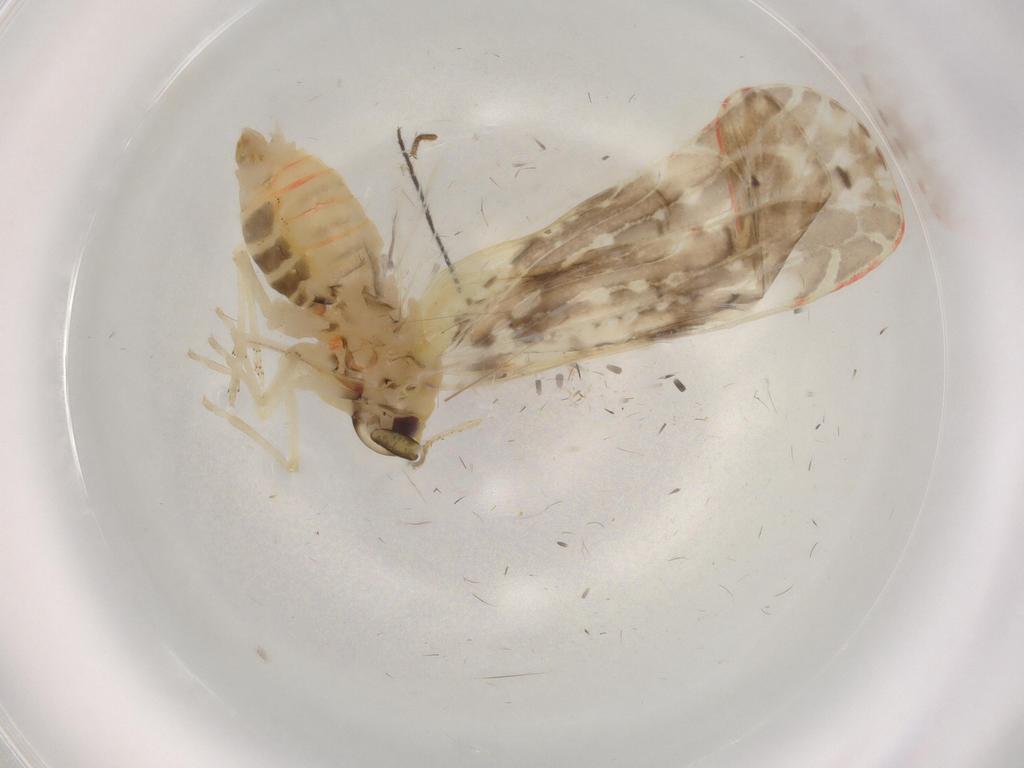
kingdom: Animalia
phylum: Arthropoda
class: Insecta
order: Hemiptera
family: Derbidae
